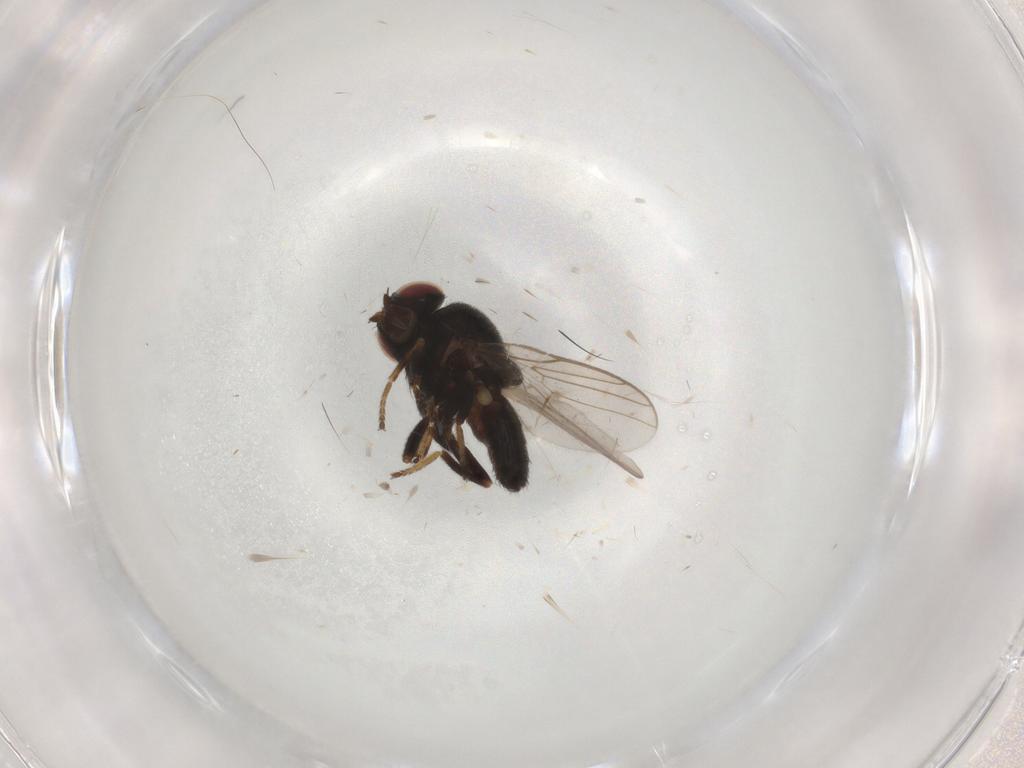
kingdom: Animalia
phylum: Arthropoda
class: Insecta
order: Diptera
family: Chloropidae
